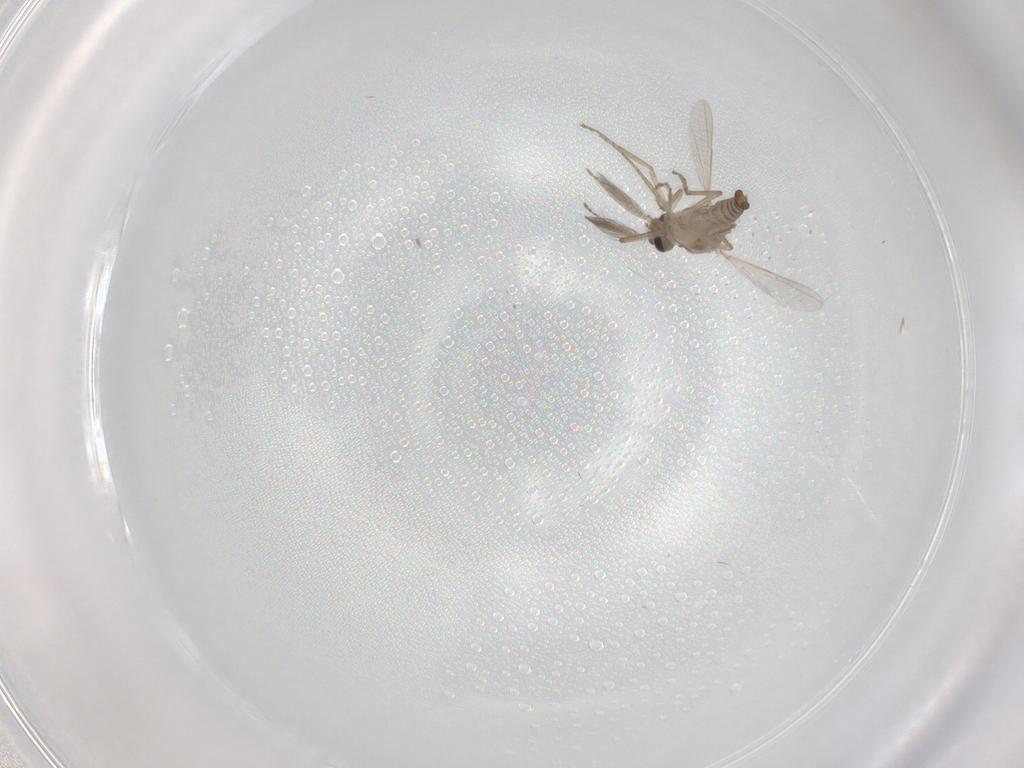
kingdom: Animalia
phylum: Arthropoda
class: Insecta
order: Diptera
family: Ceratopogonidae
